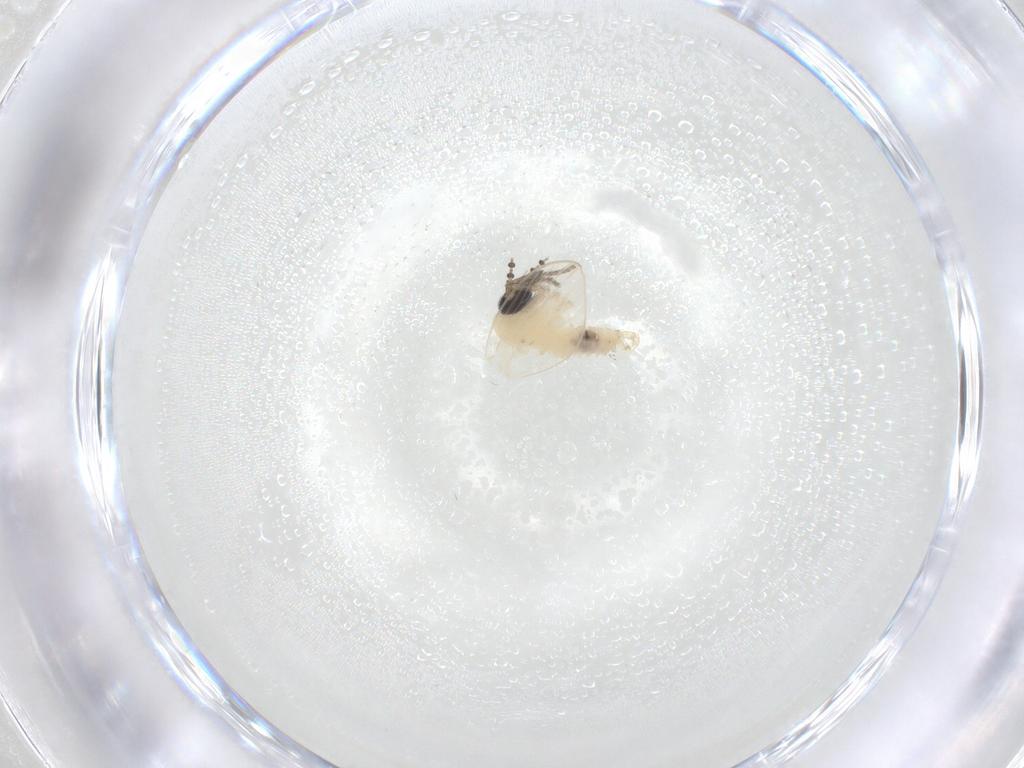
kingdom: Animalia
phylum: Arthropoda
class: Insecta
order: Diptera
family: Psychodidae
